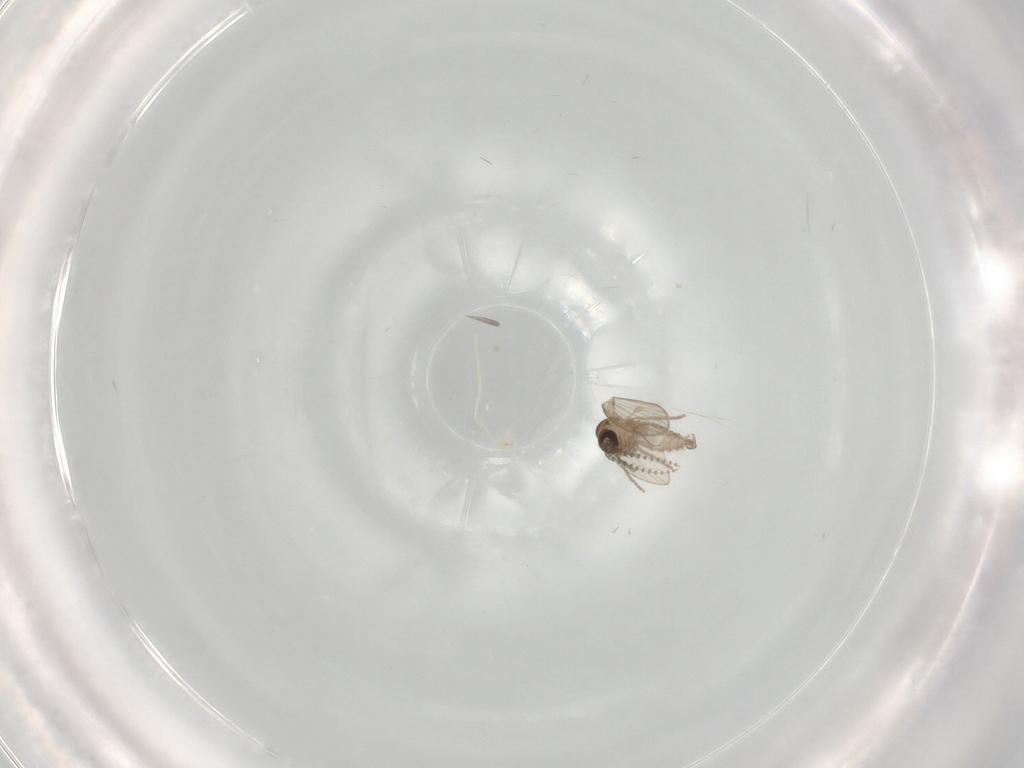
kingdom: Animalia
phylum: Arthropoda
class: Insecta
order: Diptera
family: Psychodidae
